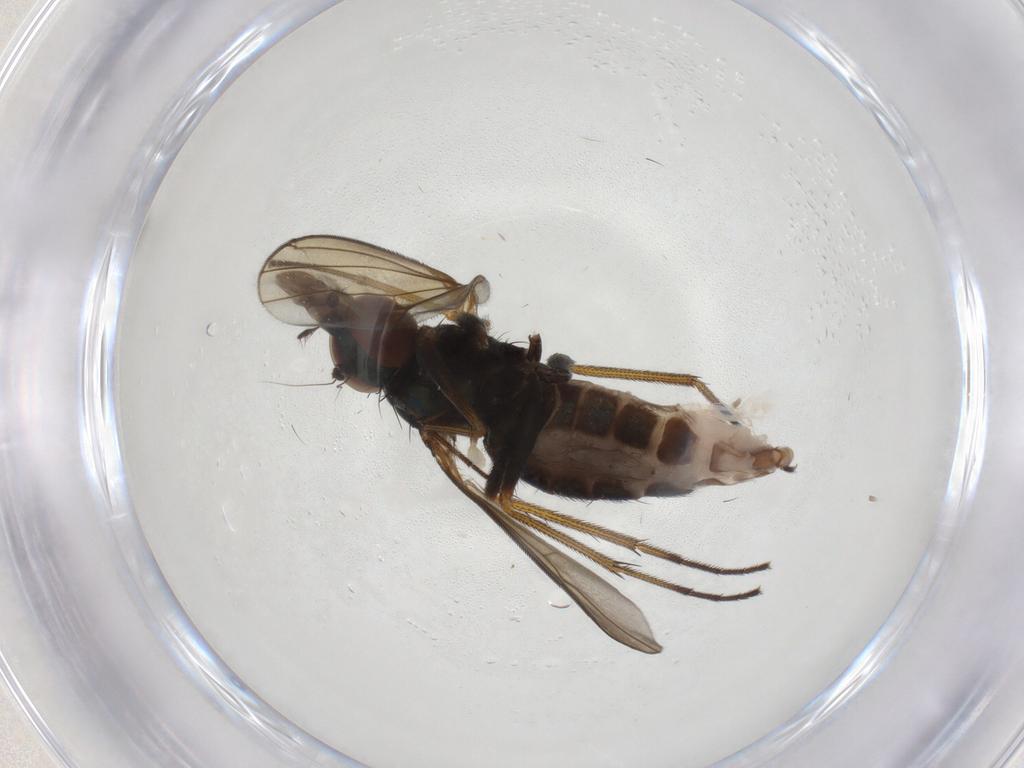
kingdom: Animalia
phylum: Arthropoda
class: Insecta
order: Diptera
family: Dolichopodidae
